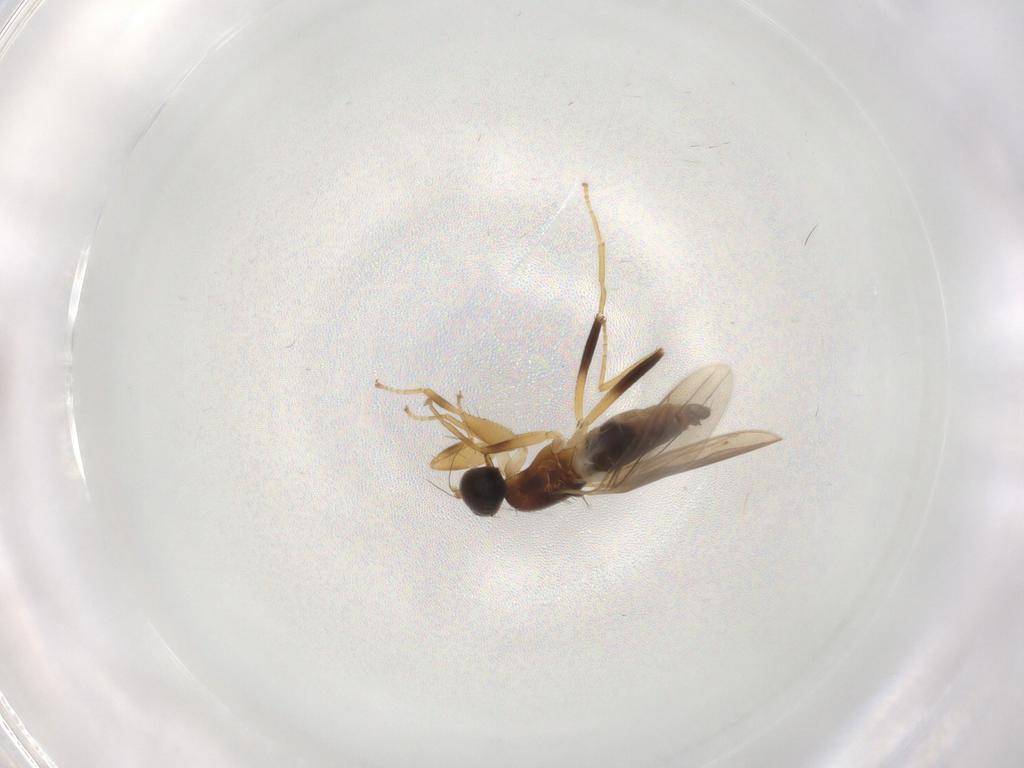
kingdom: Animalia
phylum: Arthropoda
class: Insecta
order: Diptera
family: Empididae
